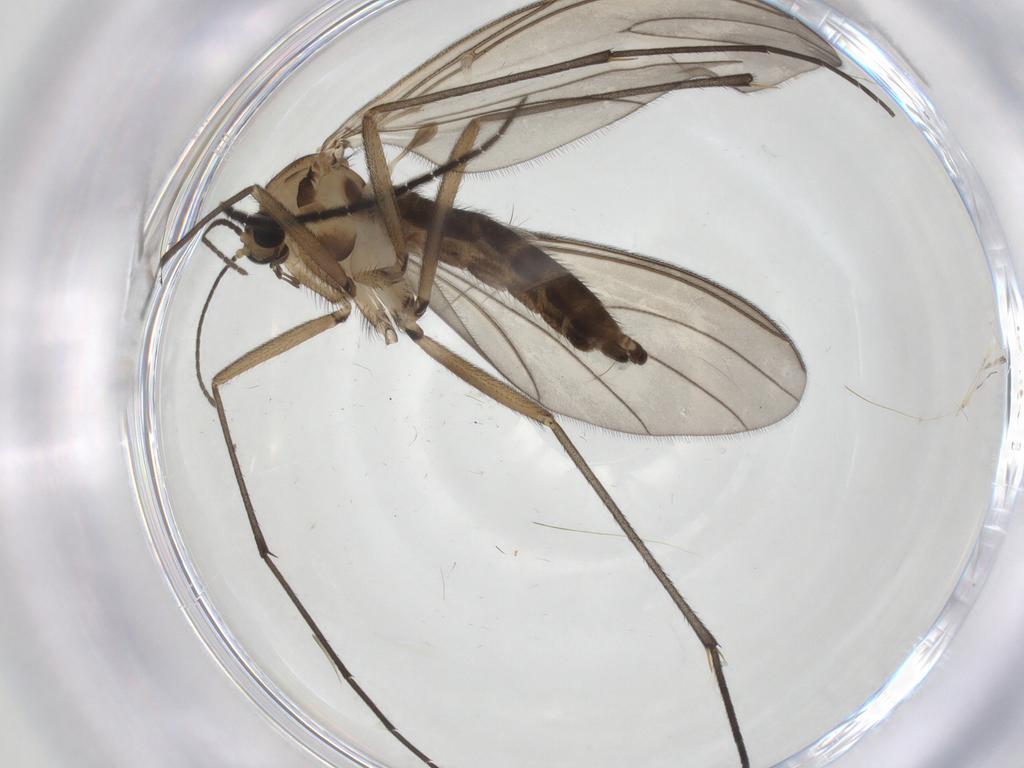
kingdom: Animalia
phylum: Arthropoda
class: Insecta
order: Diptera
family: Sciaridae
